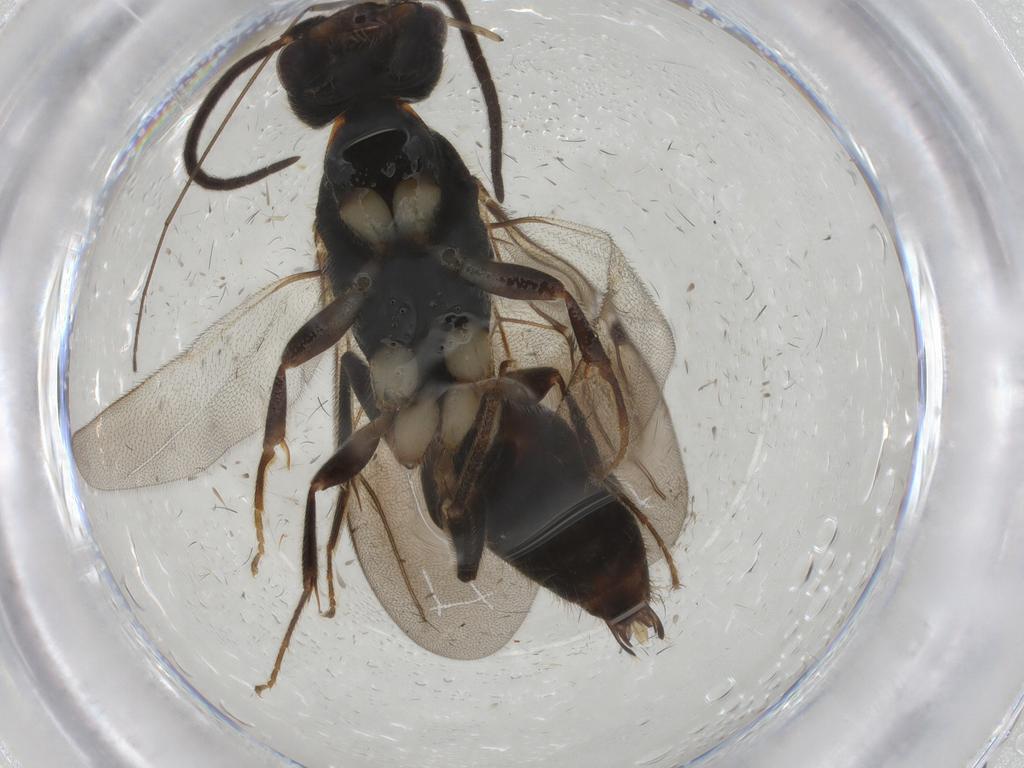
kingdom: Animalia
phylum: Arthropoda
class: Insecta
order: Hymenoptera
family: Bethylidae
